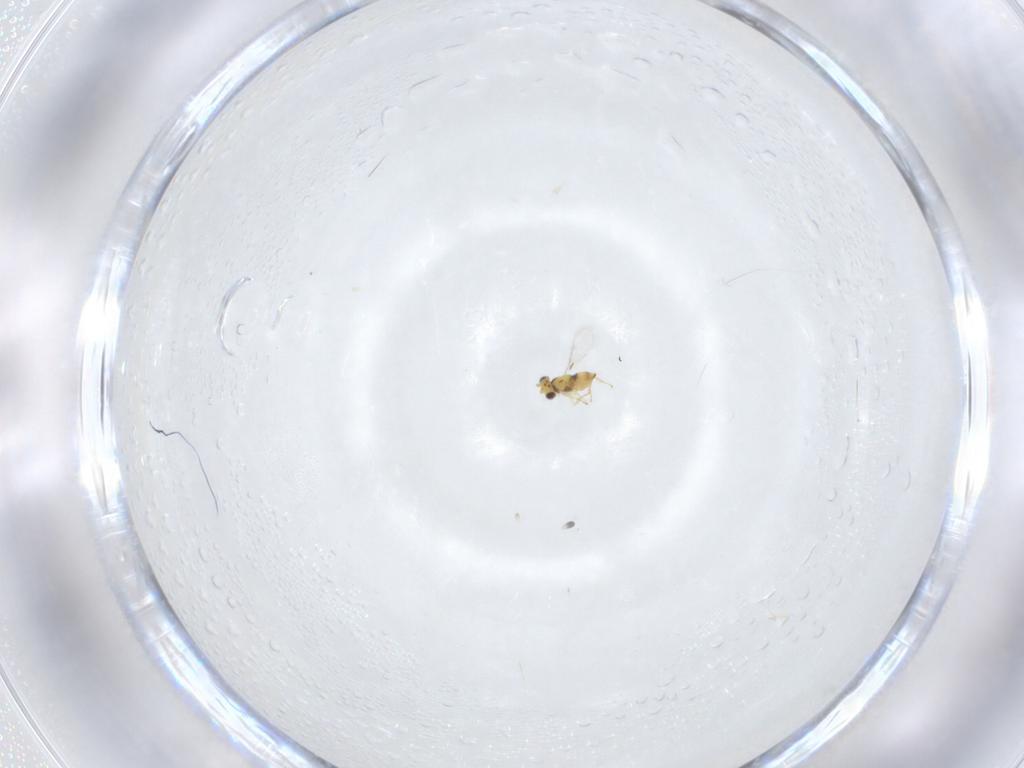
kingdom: Animalia
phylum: Arthropoda
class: Insecta
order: Hymenoptera
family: Aphelinidae
